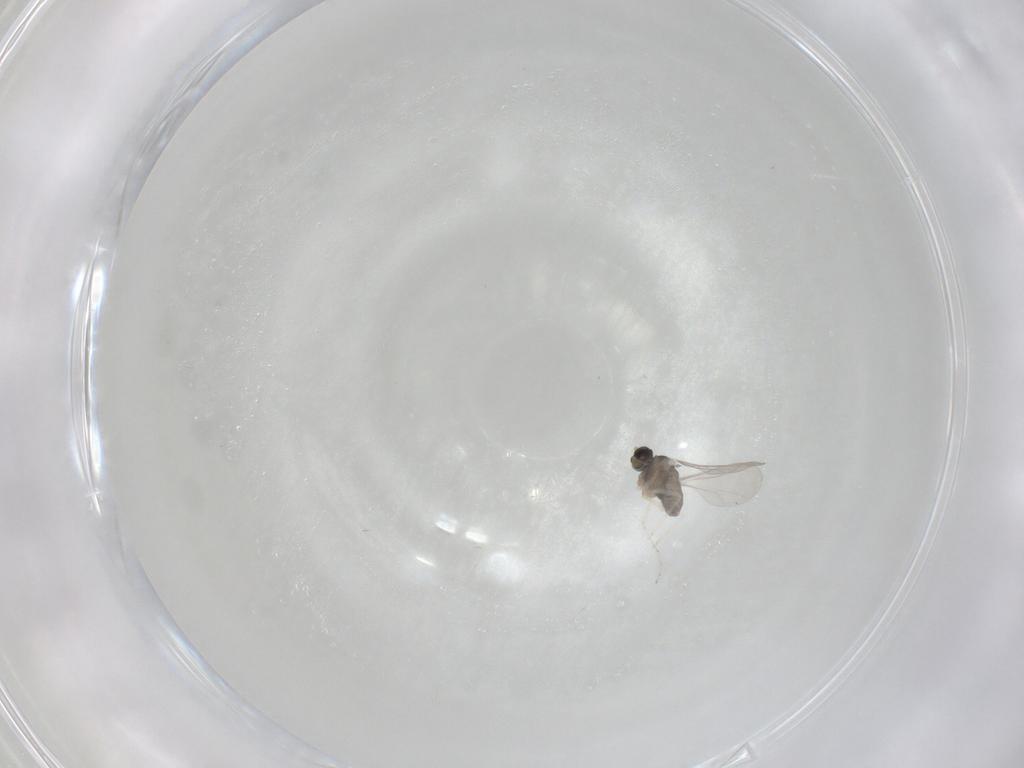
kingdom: Animalia
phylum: Arthropoda
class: Insecta
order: Diptera
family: Cecidomyiidae
